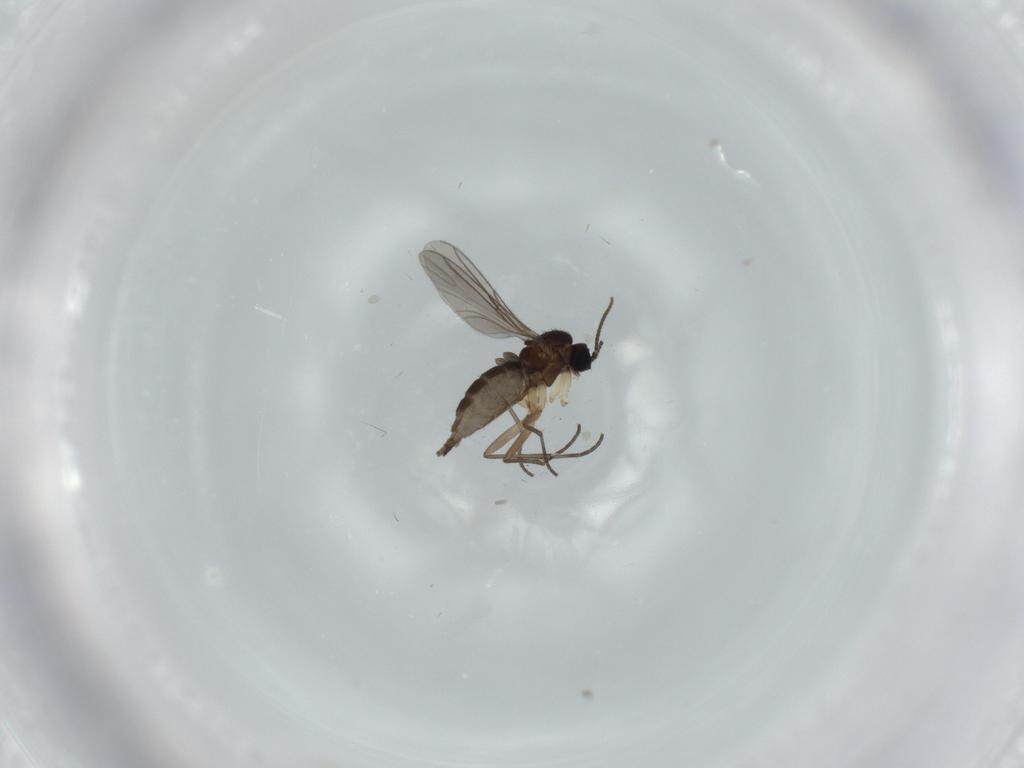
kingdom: Animalia
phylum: Arthropoda
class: Insecta
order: Diptera
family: Sciaridae
